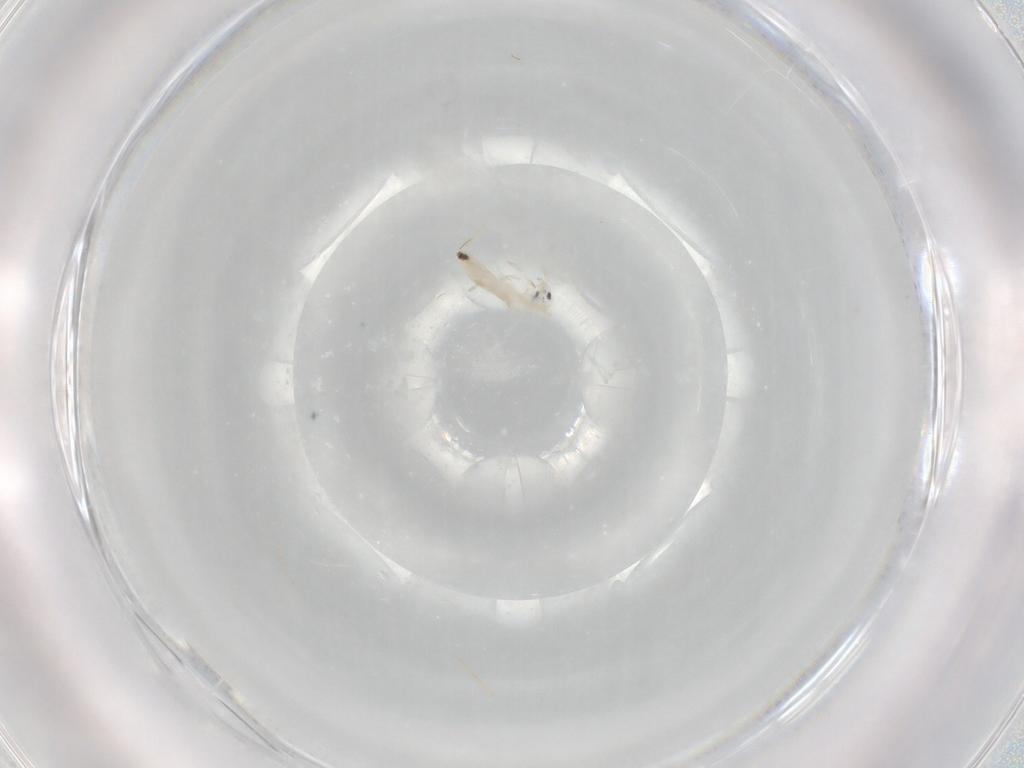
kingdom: Animalia
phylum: Arthropoda
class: Collembola
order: Entomobryomorpha
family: Entomobryidae
